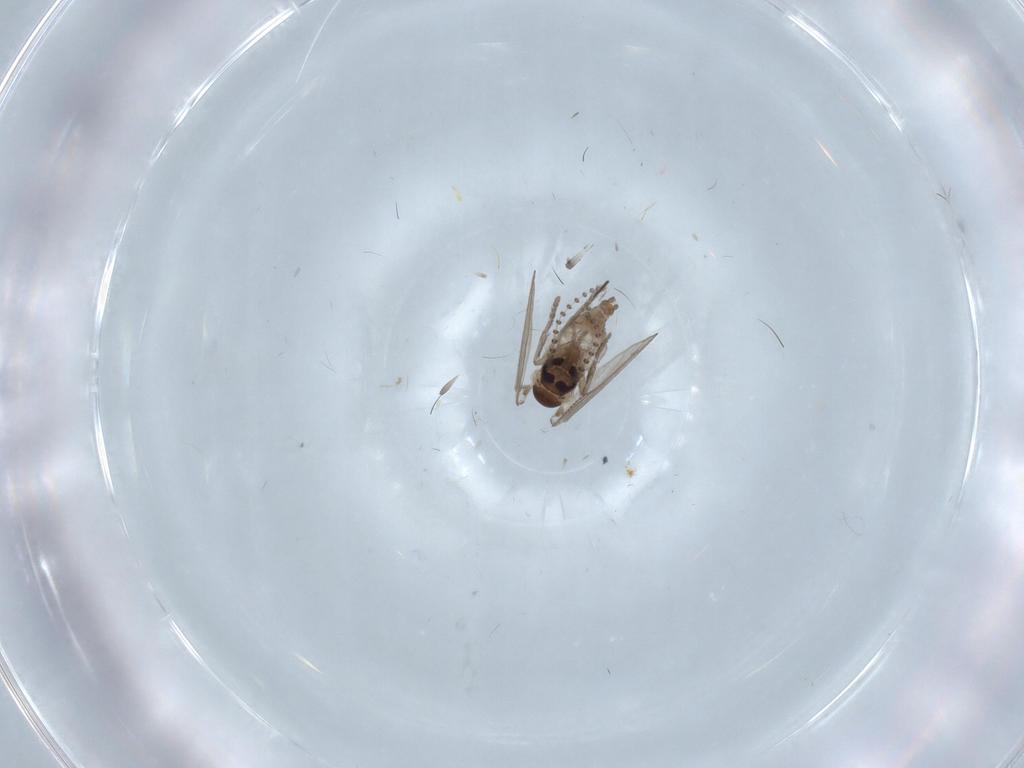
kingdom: Animalia
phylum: Arthropoda
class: Insecta
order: Diptera
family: Psychodidae
